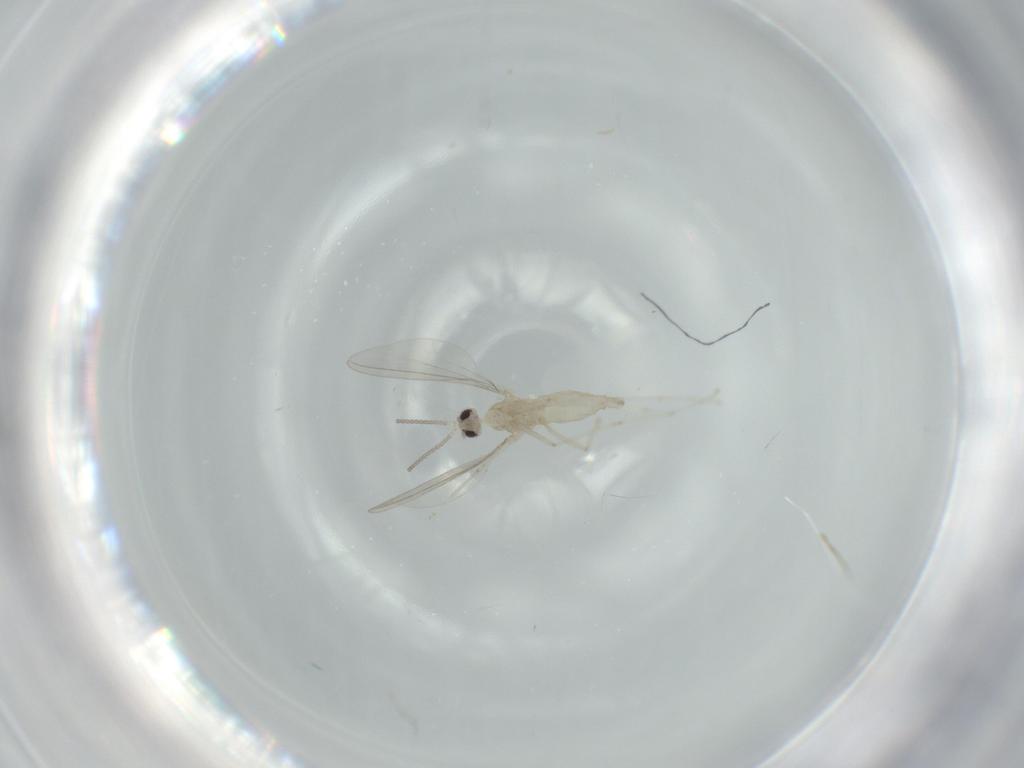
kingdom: Animalia
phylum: Arthropoda
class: Insecta
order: Diptera
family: Cecidomyiidae
